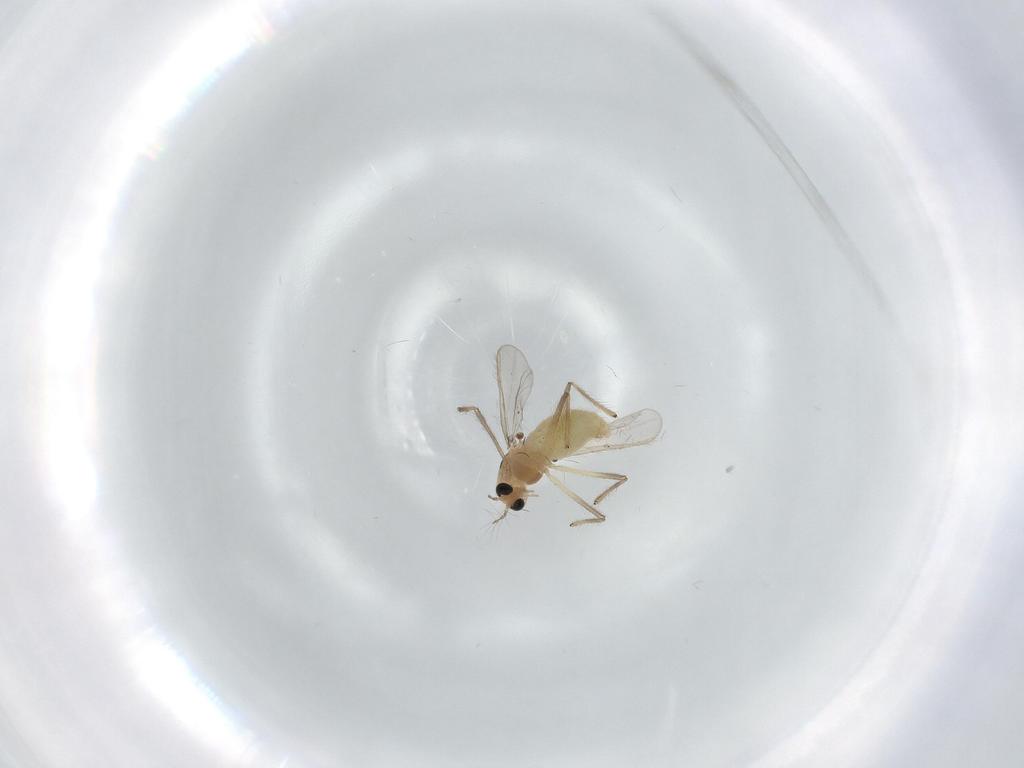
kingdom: Animalia
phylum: Arthropoda
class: Insecta
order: Diptera
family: Chironomidae
